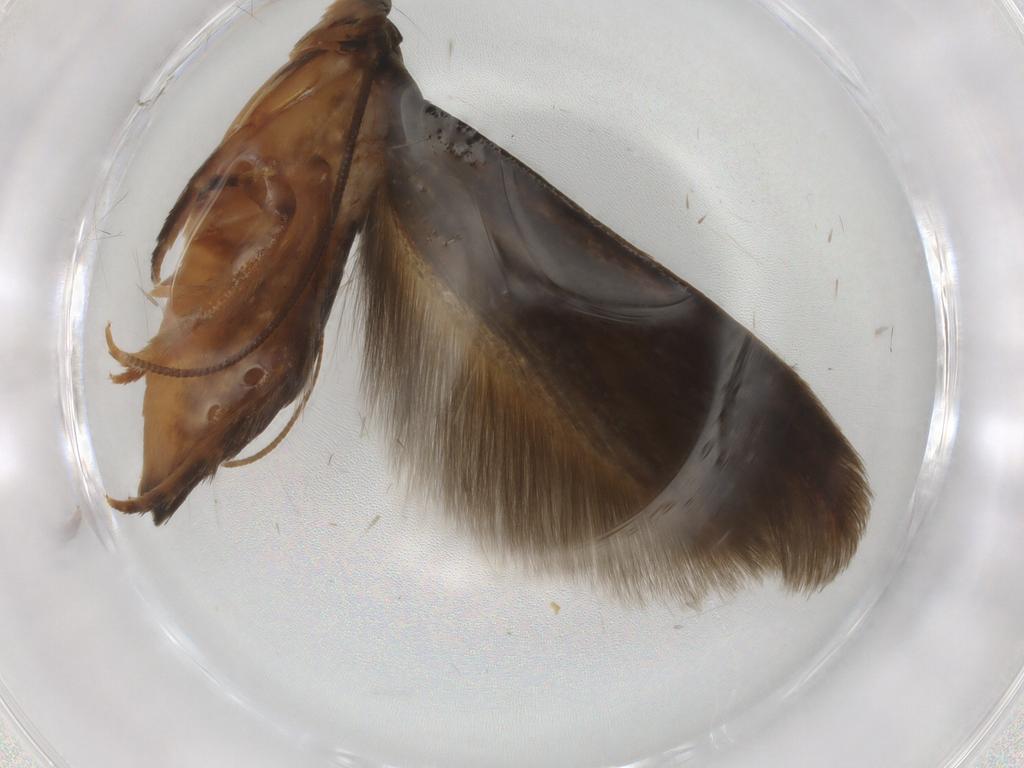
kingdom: Animalia
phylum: Arthropoda
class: Insecta
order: Lepidoptera
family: Tineidae
